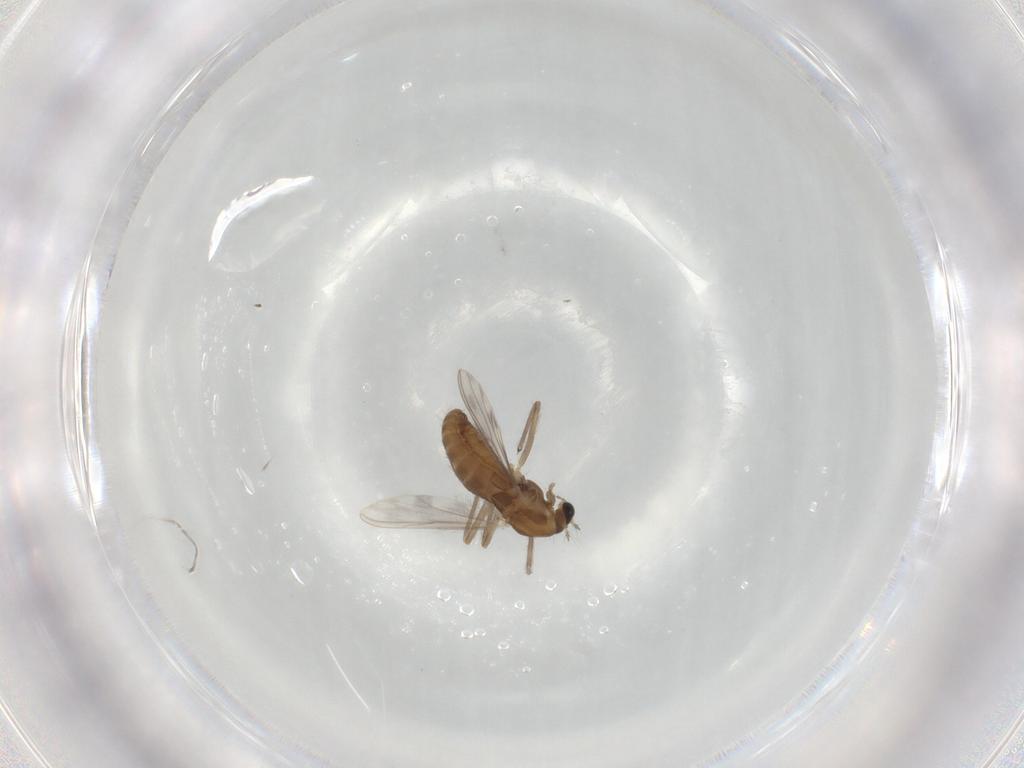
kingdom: Animalia
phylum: Arthropoda
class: Insecta
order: Diptera
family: Chironomidae
